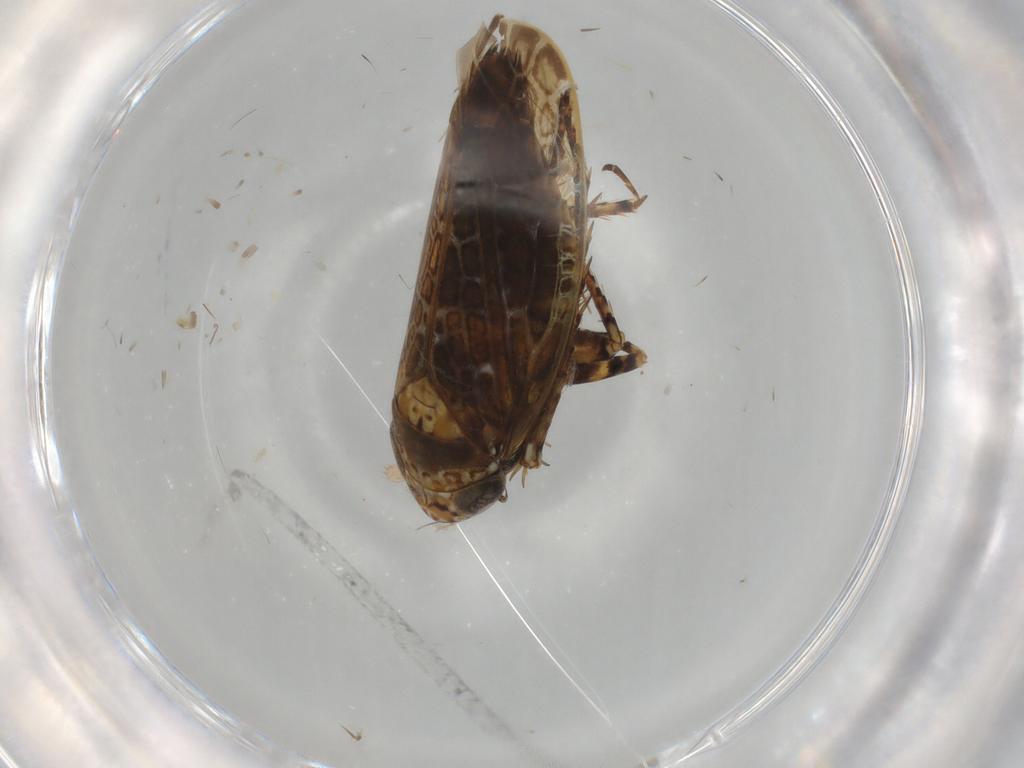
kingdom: Animalia
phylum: Arthropoda
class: Insecta
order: Hemiptera
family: Cicadellidae
